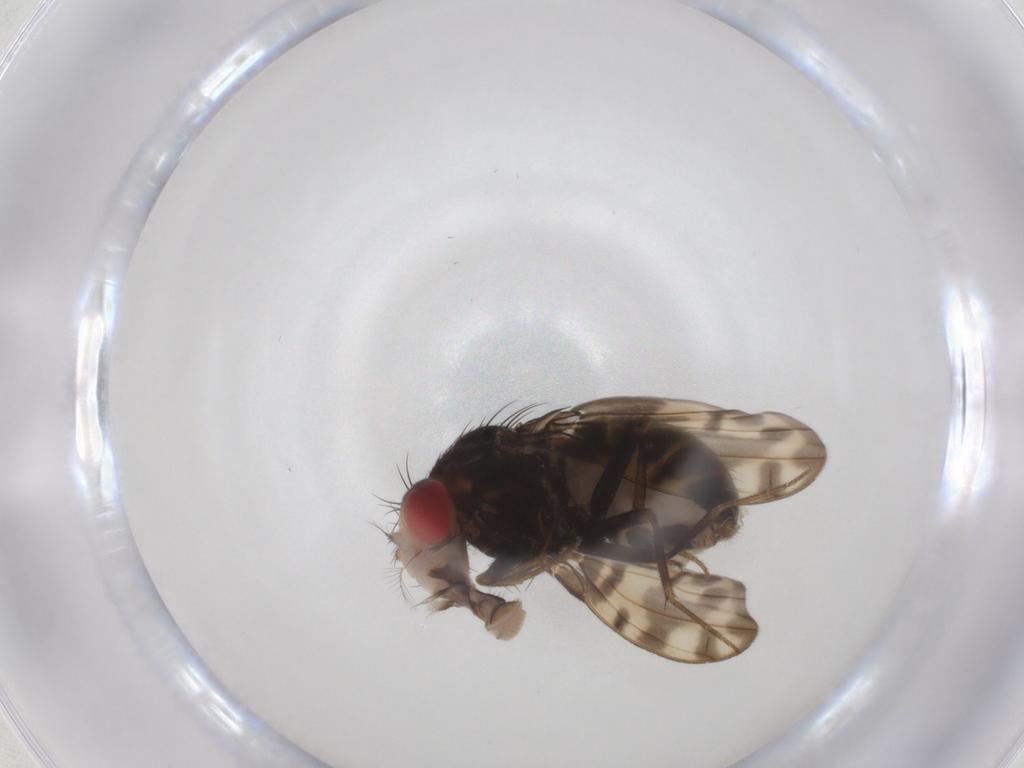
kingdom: Animalia
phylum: Arthropoda
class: Insecta
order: Diptera
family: Drosophilidae
